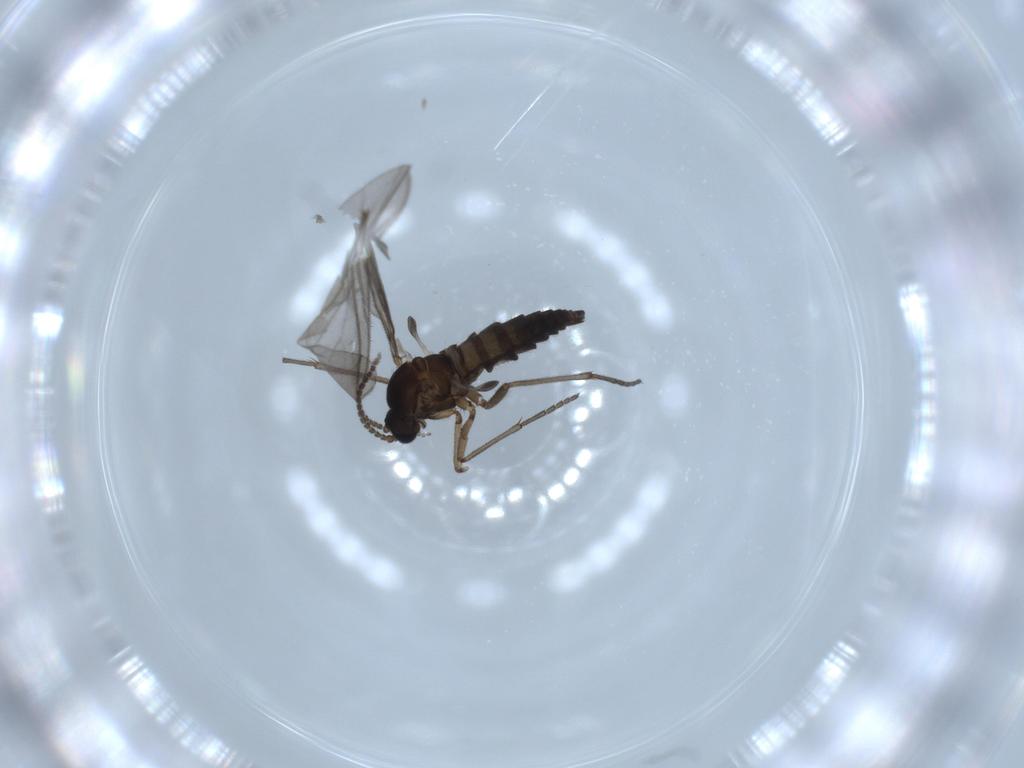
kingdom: Animalia
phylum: Arthropoda
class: Insecta
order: Diptera
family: Sciaridae
